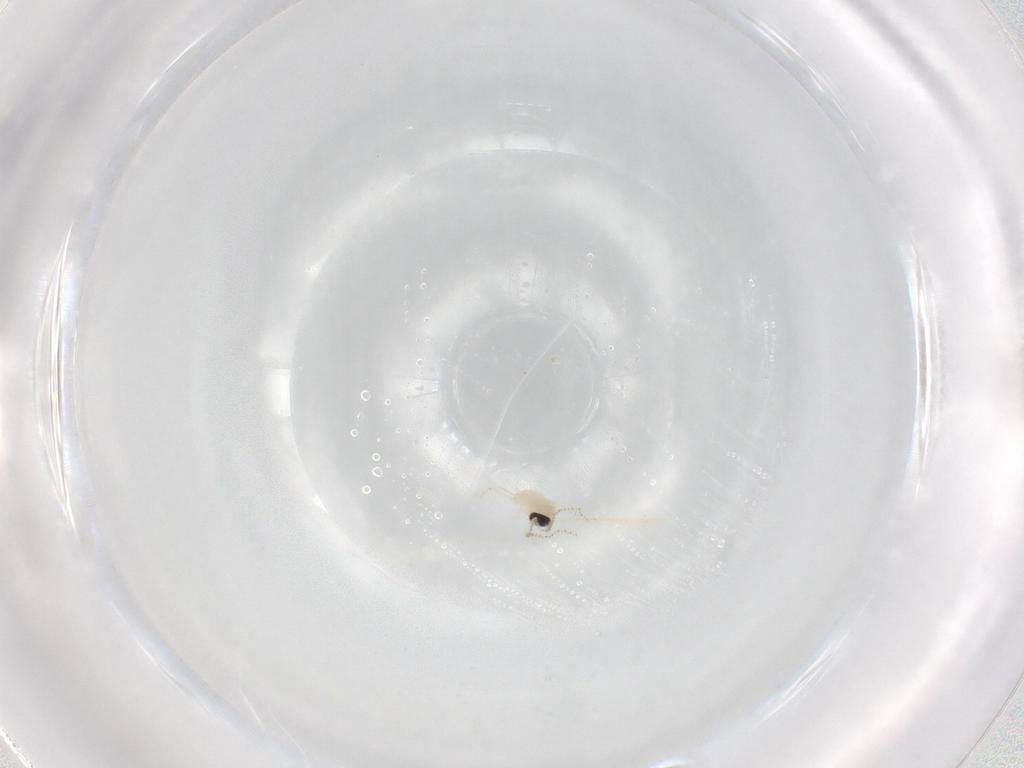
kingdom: Animalia
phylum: Arthropoda
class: Insecta
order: Diptera
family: Cecidomyiidae
